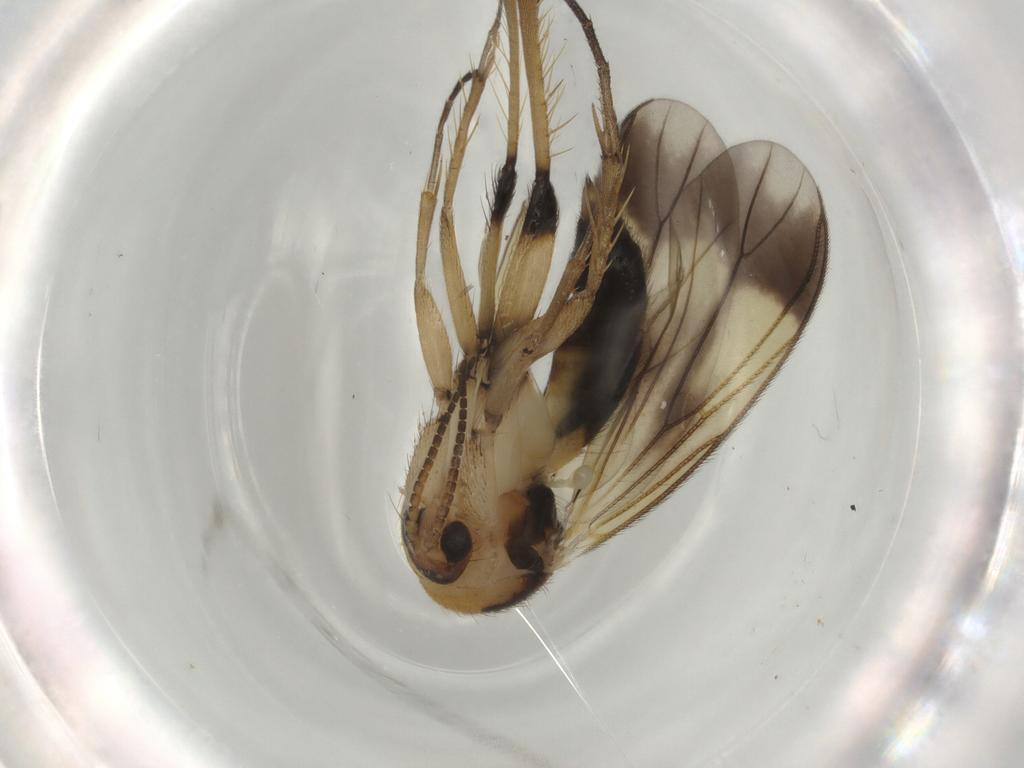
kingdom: Animalia
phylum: Arthropoda
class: Insecta
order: Diptera
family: Mycetophilidae
